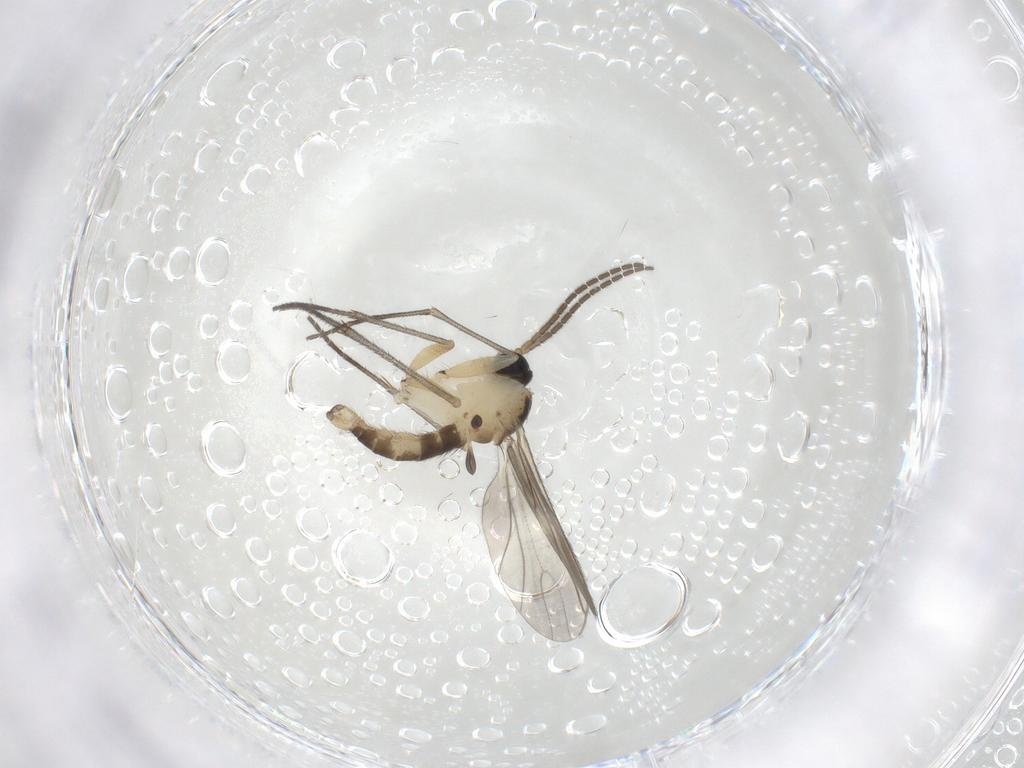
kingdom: Animalia
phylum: Arthropoda
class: Insecta
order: Diptera
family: Sciaridae
